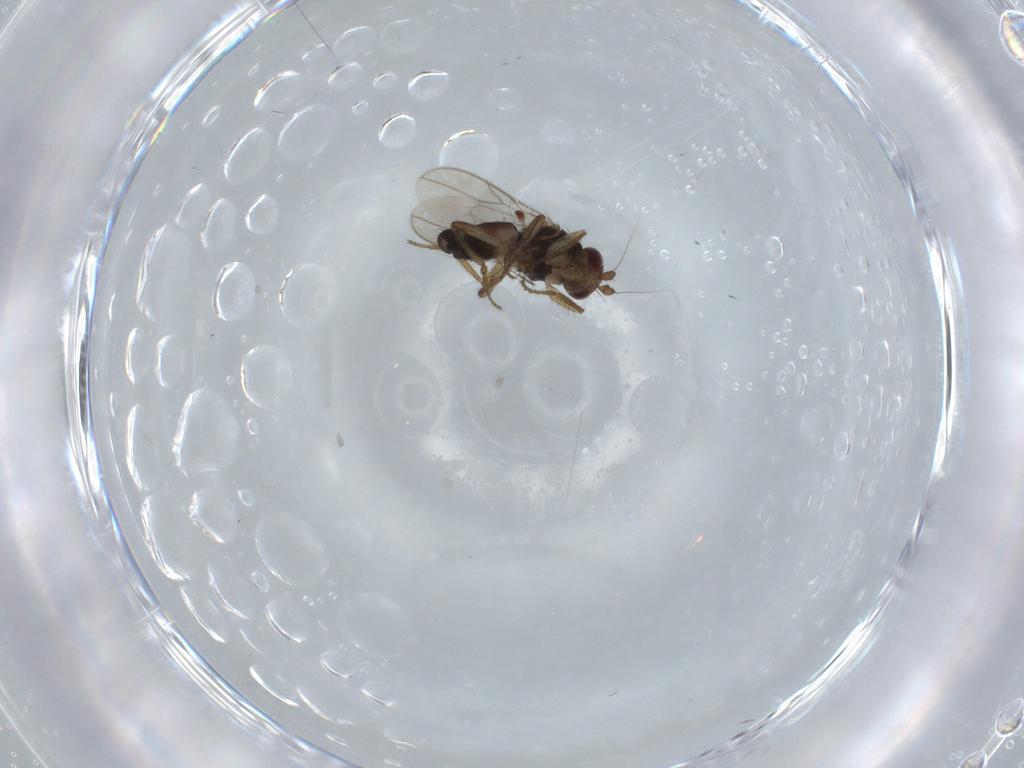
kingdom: Animalia
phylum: Arthropoda
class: Insecta
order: Diptera
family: Sphaeroceridae
